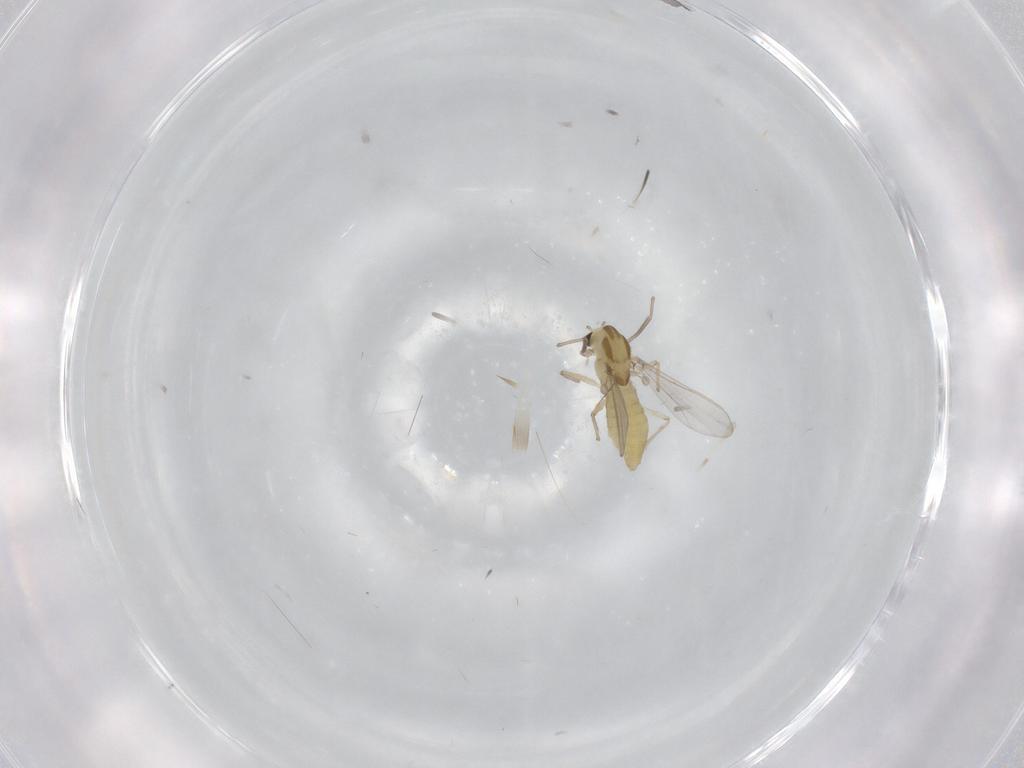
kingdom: Animalia
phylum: Arthropoda
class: Insecta
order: Diptera
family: Chironomidae
